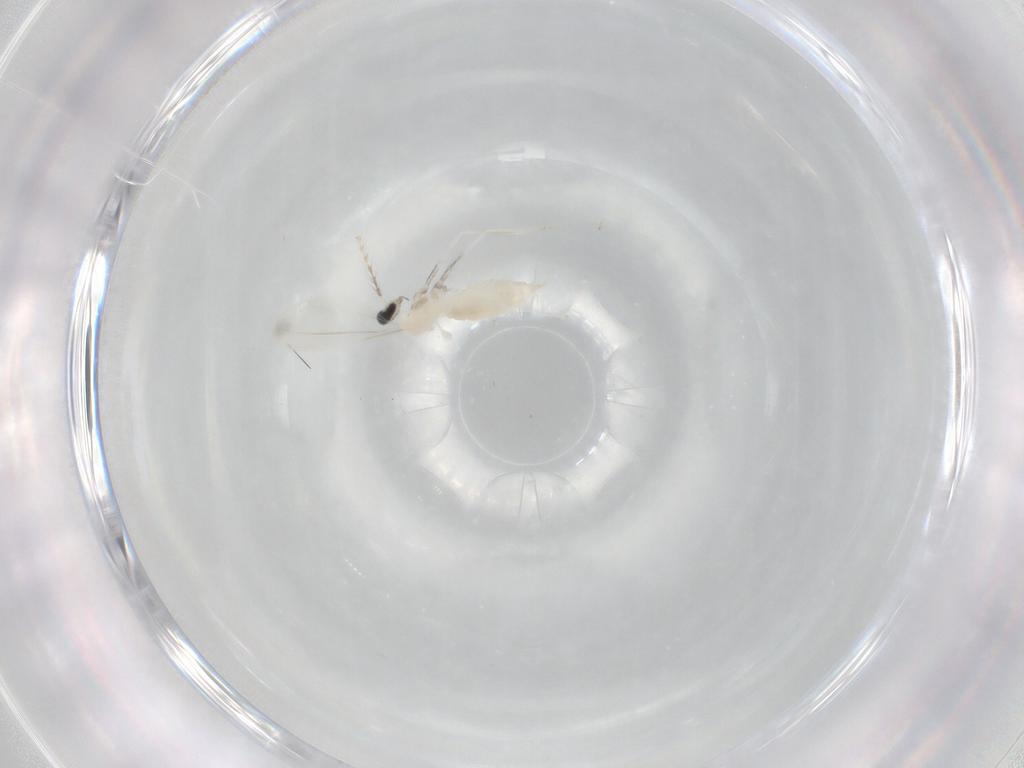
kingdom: Animalia
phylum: Arthropoda
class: Insecta
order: Diptera
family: Cecidomyiidae
